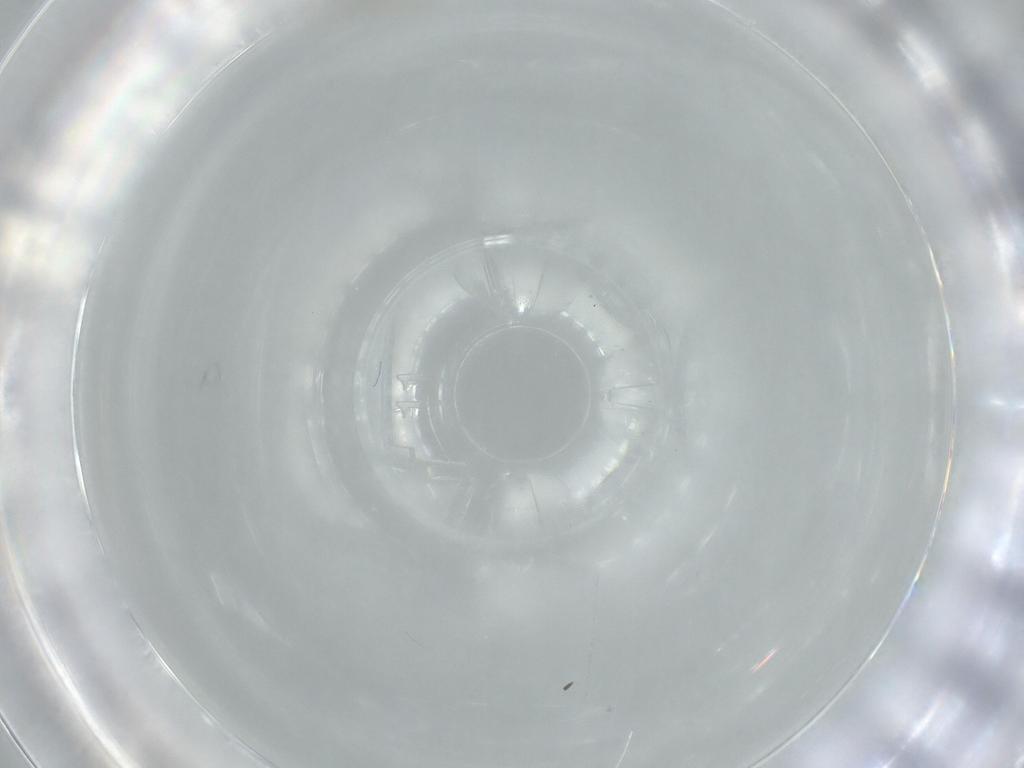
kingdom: Animalia
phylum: Arthropoda
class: Insecta
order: Diptera
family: Cecidomyiidae
